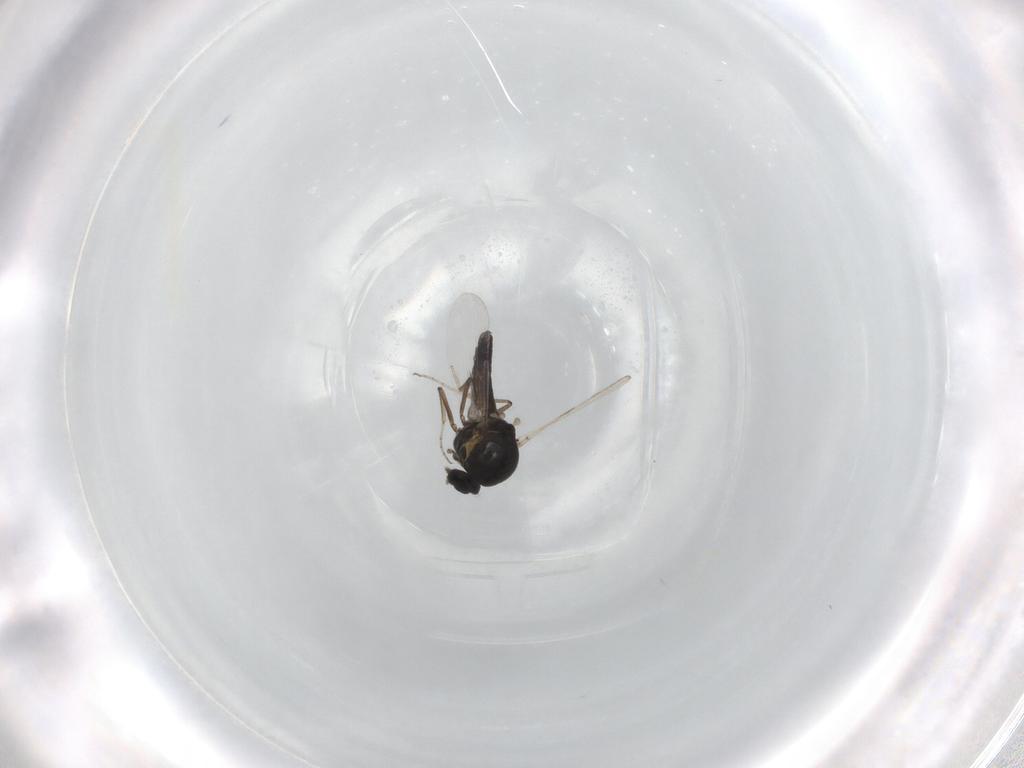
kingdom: Animalia
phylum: Arthropoda
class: Insecta
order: Diptera
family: Ceratopogonidae
